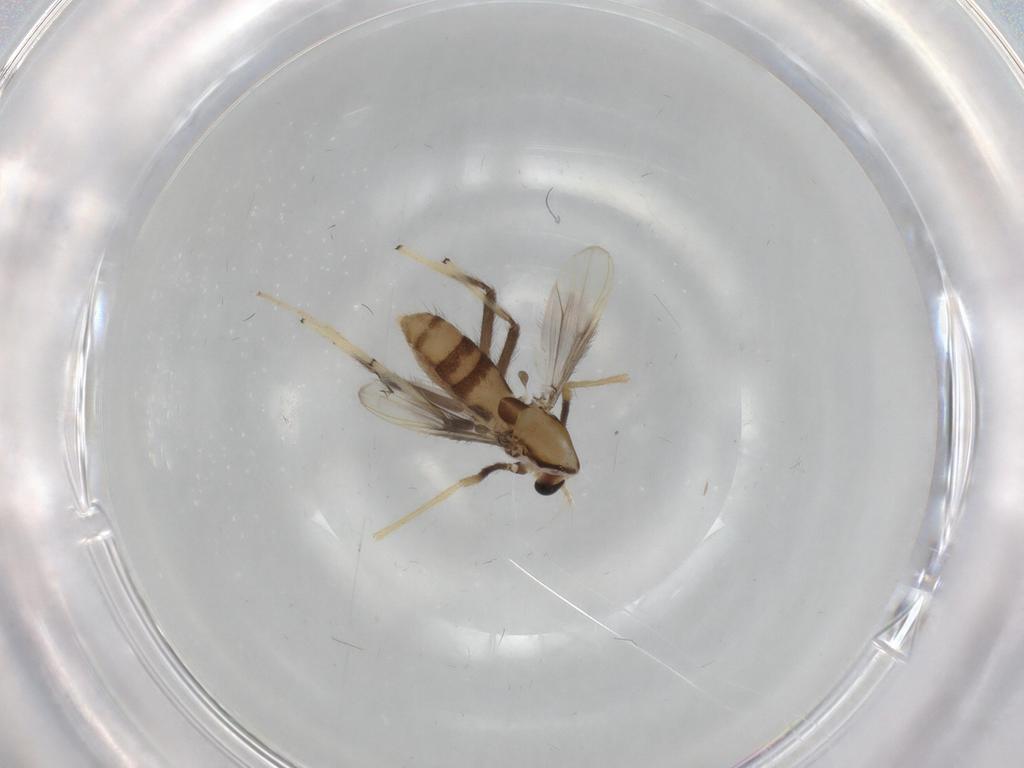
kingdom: Animalia
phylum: Arthropoda
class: Insecta
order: Diptera
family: Chironomidae
